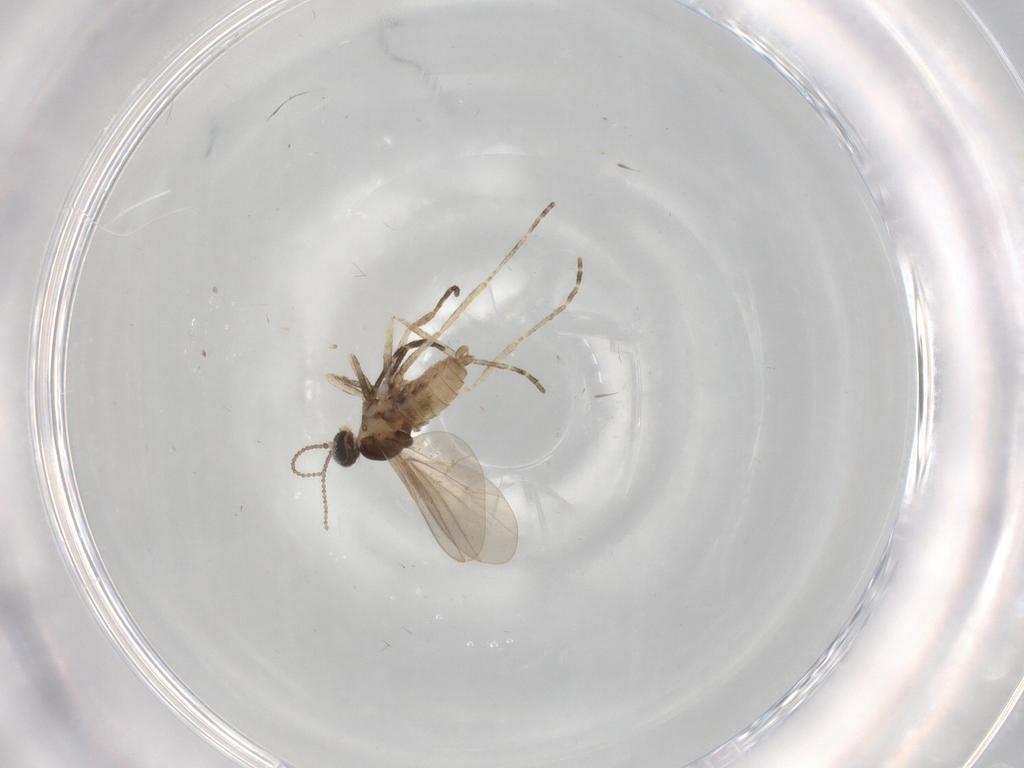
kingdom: Animalia
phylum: Arthropoda
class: Insecta
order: Diptera
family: Cecidomyiidae
